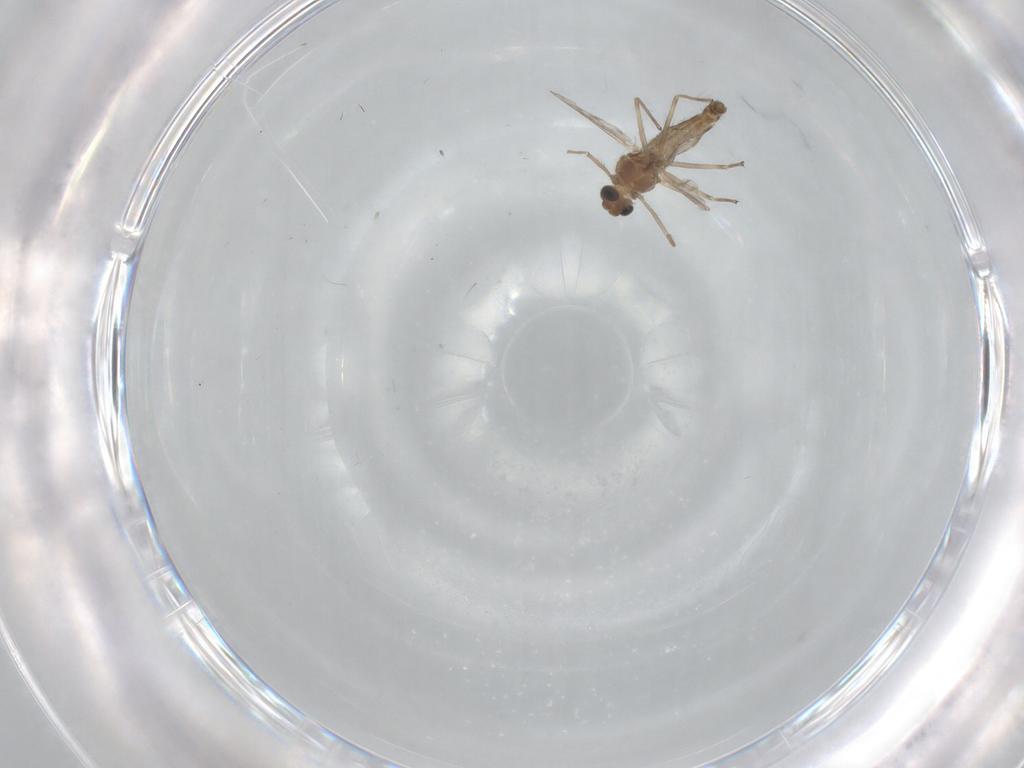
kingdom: Animalia
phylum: Arthropoda
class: Insecta
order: Diptera
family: Chironomidae
